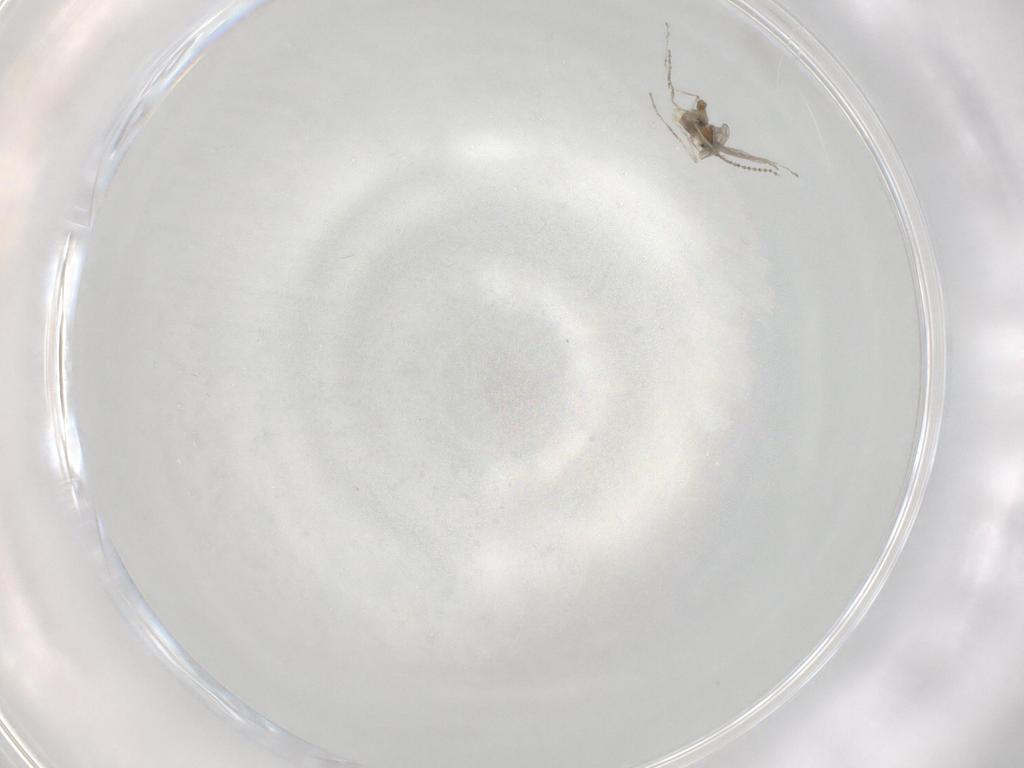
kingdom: Animalia
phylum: Arthropoda
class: Insecta
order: Diptera
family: Cecidomyiidae
